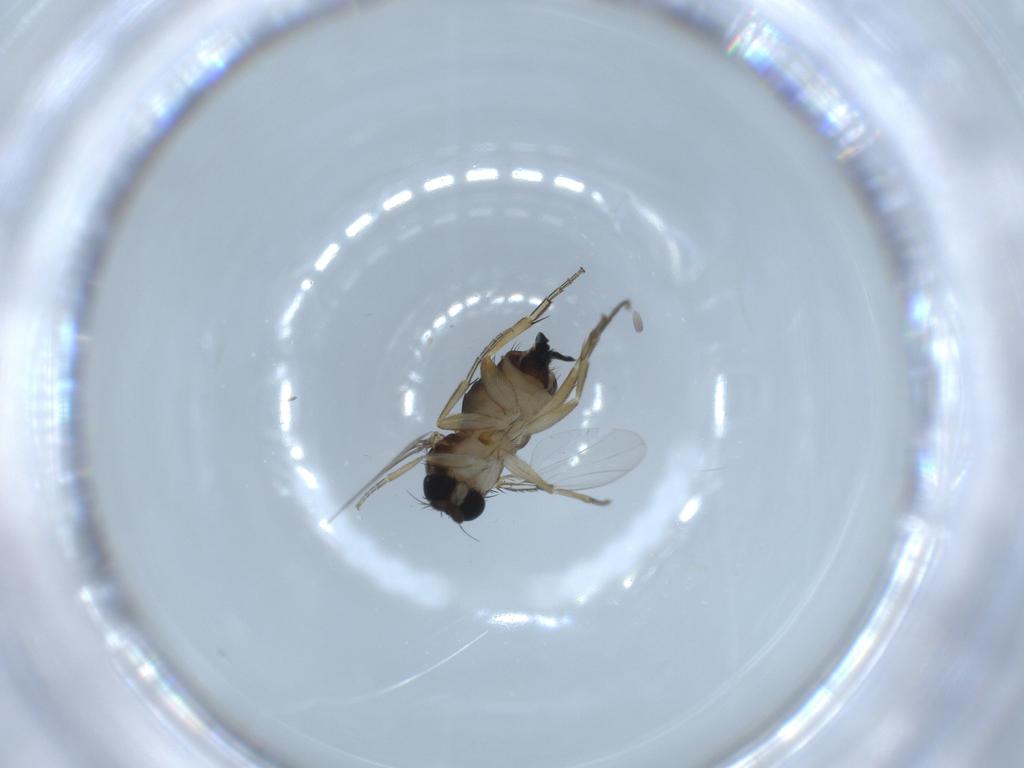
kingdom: Animalia
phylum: Arthropoda
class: Insecta
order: Diptera
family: Phoridae
